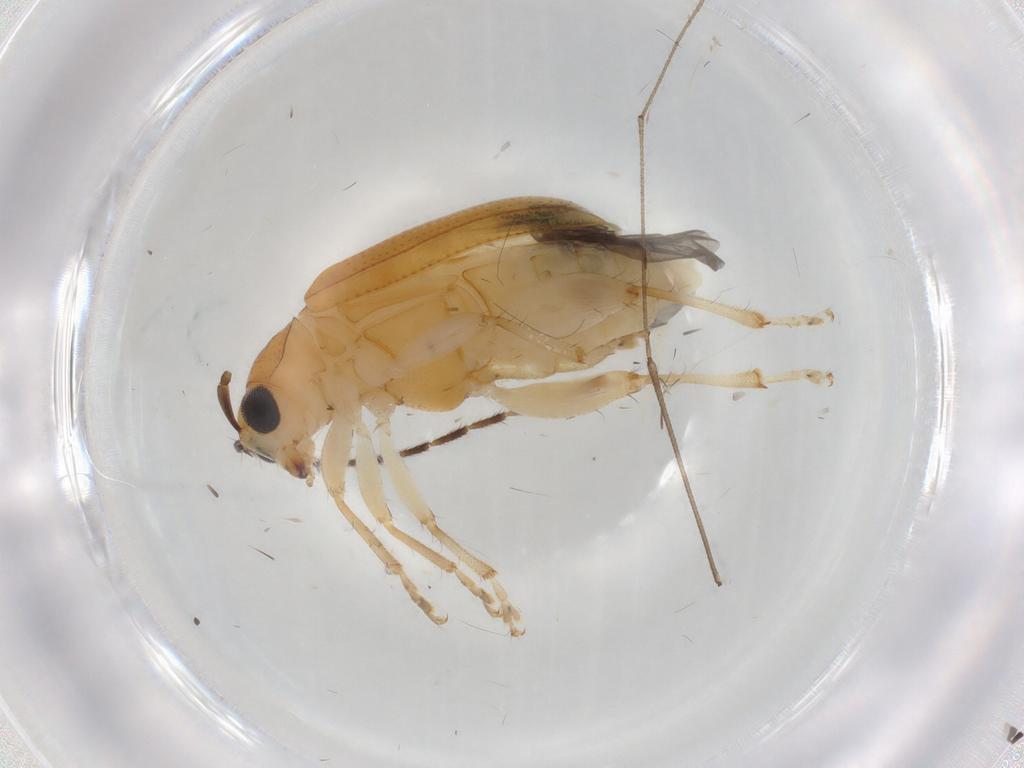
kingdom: Animalia
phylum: Arthropoda
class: Insecta
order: Coleoptera
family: Chrysomelidae
